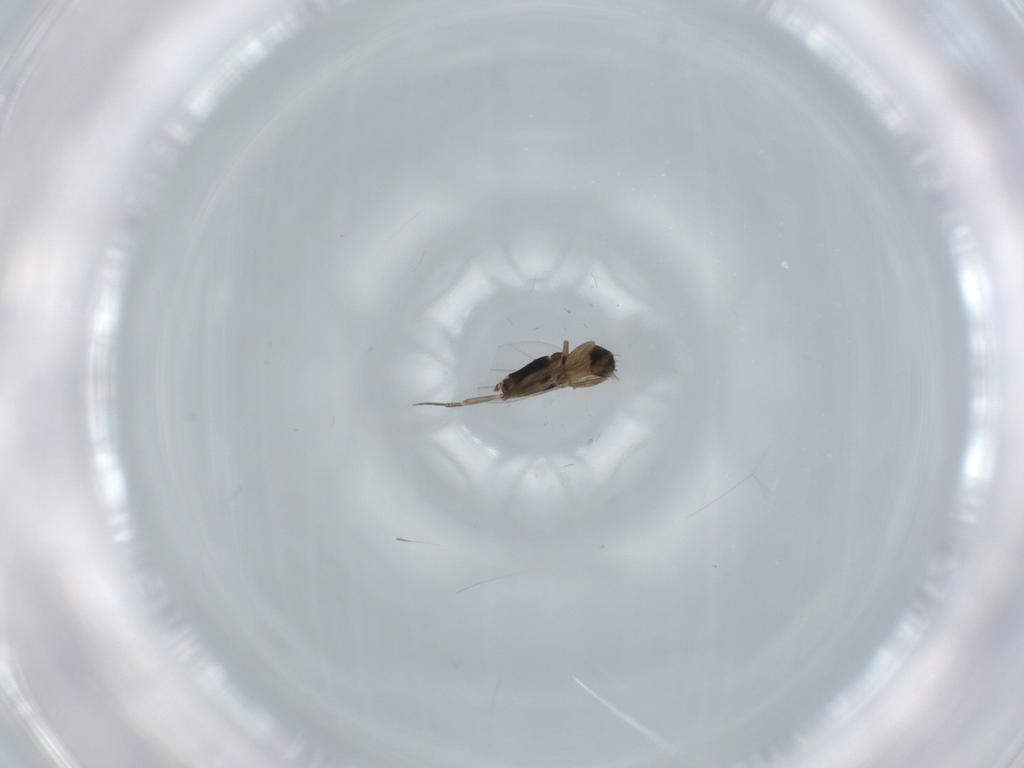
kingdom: Animalia
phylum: Arthropoda
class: Insecta
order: Diptera
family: Phoridae
